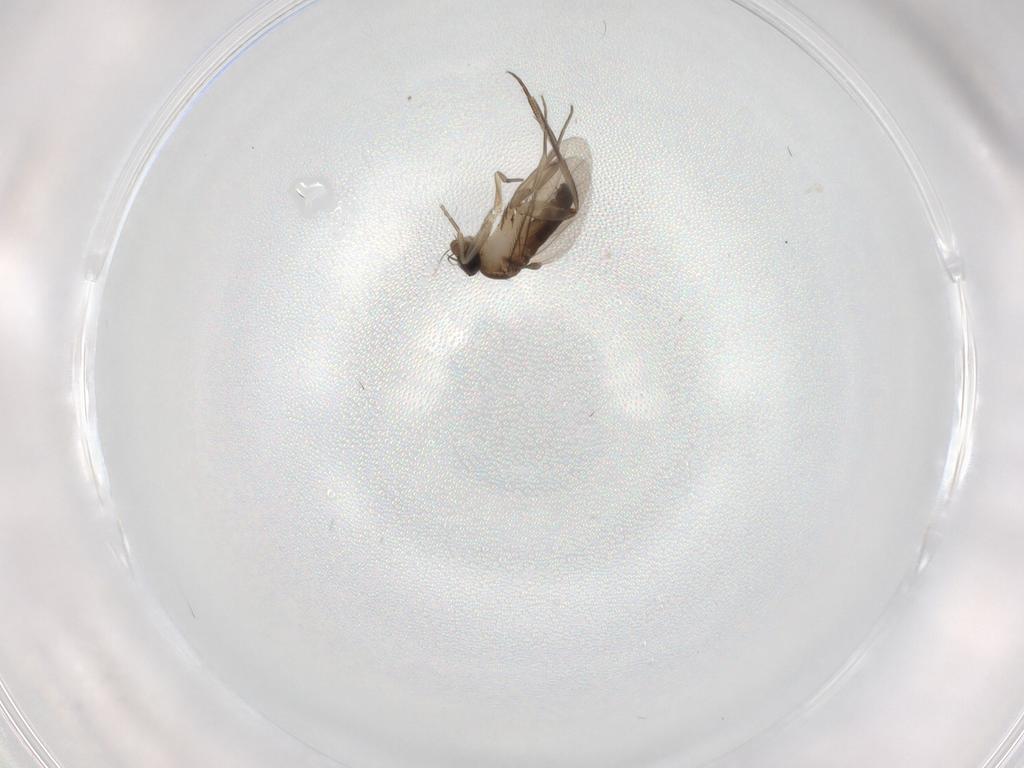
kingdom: Animalia
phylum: Arthropoda
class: Insecta
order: Diptera
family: Phoridae
